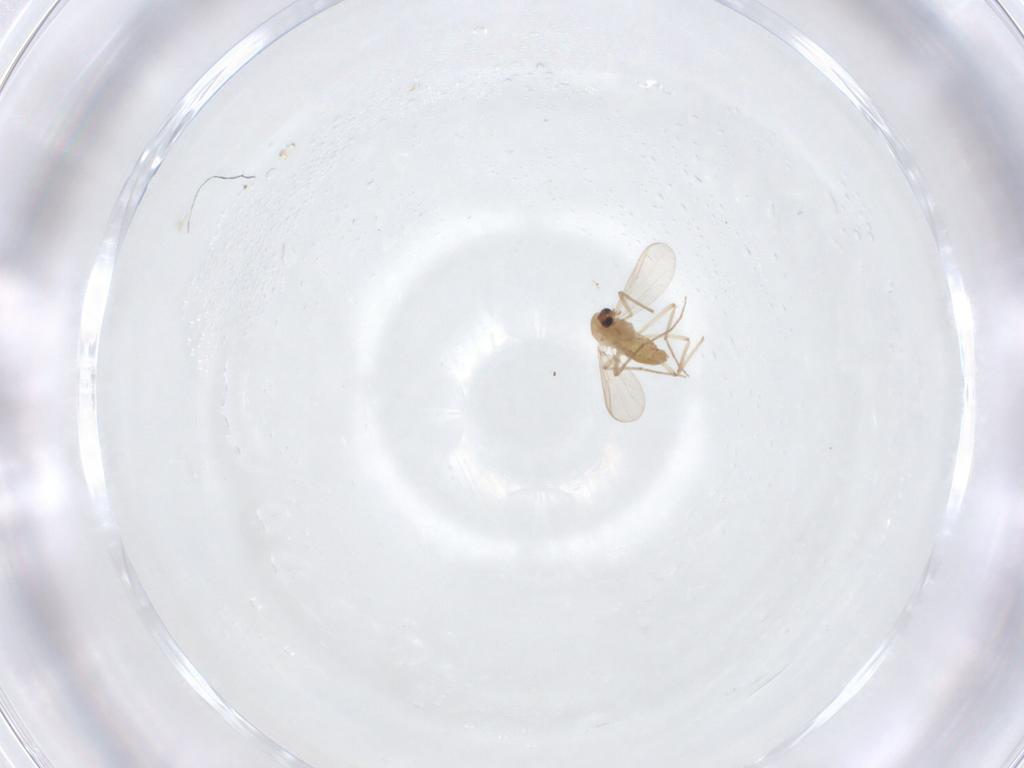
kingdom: Animalia
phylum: Arthropoda
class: Insecta
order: Diptera
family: Chironomidae
